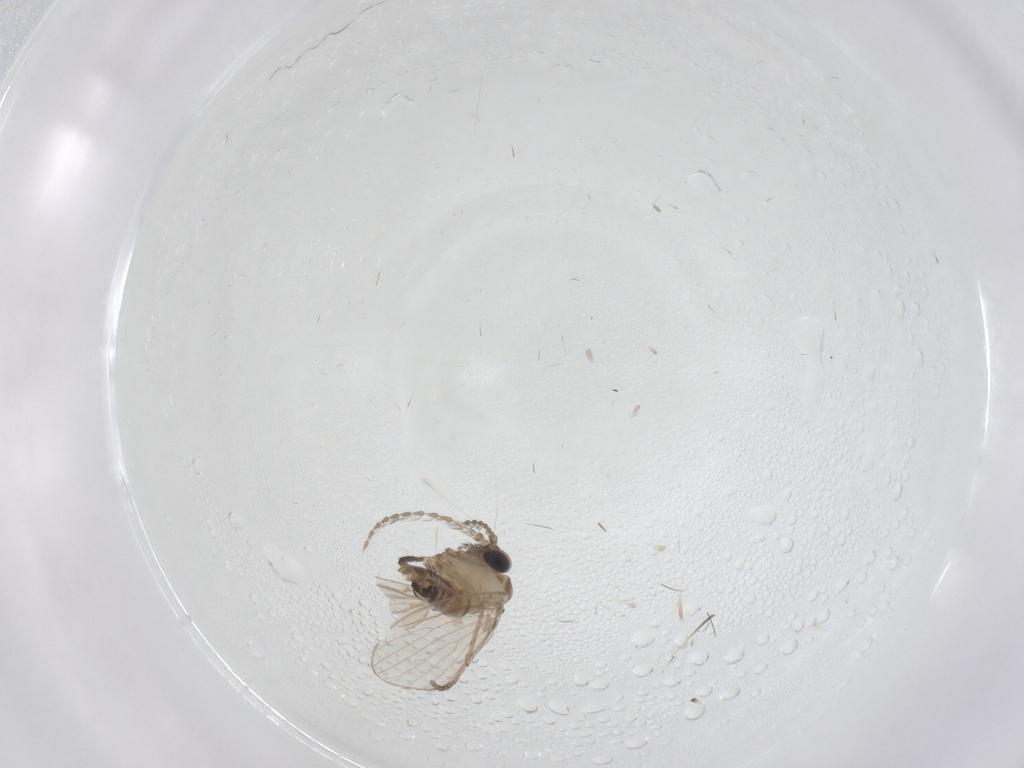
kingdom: Animalia
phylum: Arthropoda
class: Insecta
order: Diptera
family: Psychodidae
